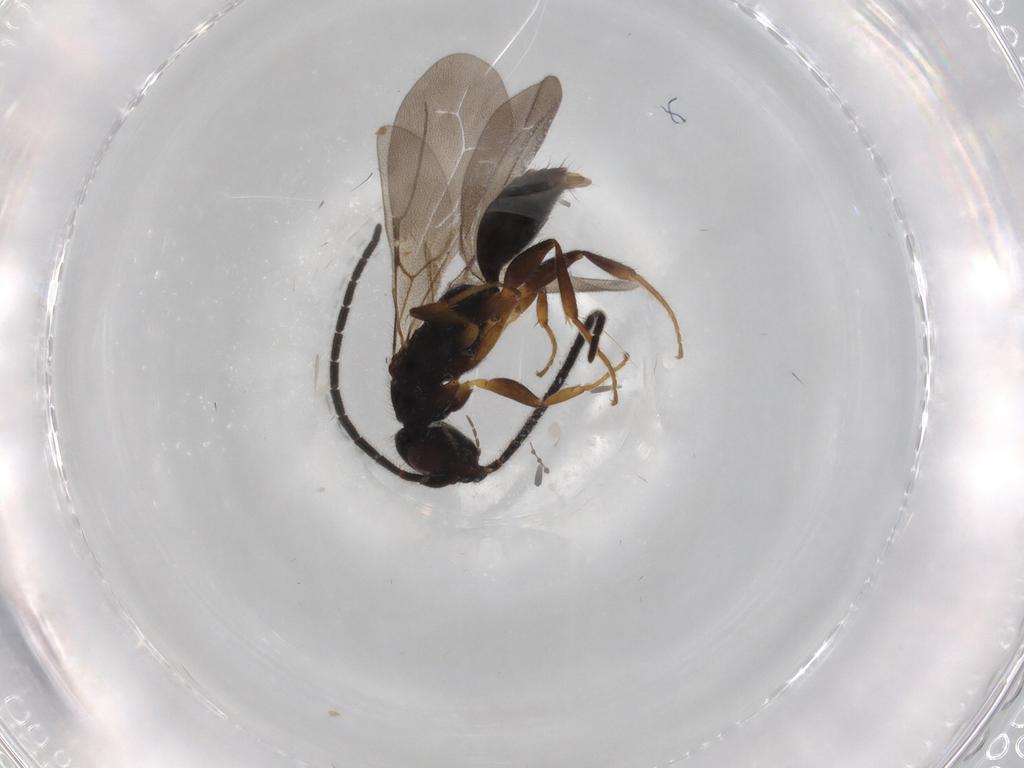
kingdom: Animalia
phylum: Arthropoda
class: Insecta
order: Hymenoptera
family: Bethylidae
